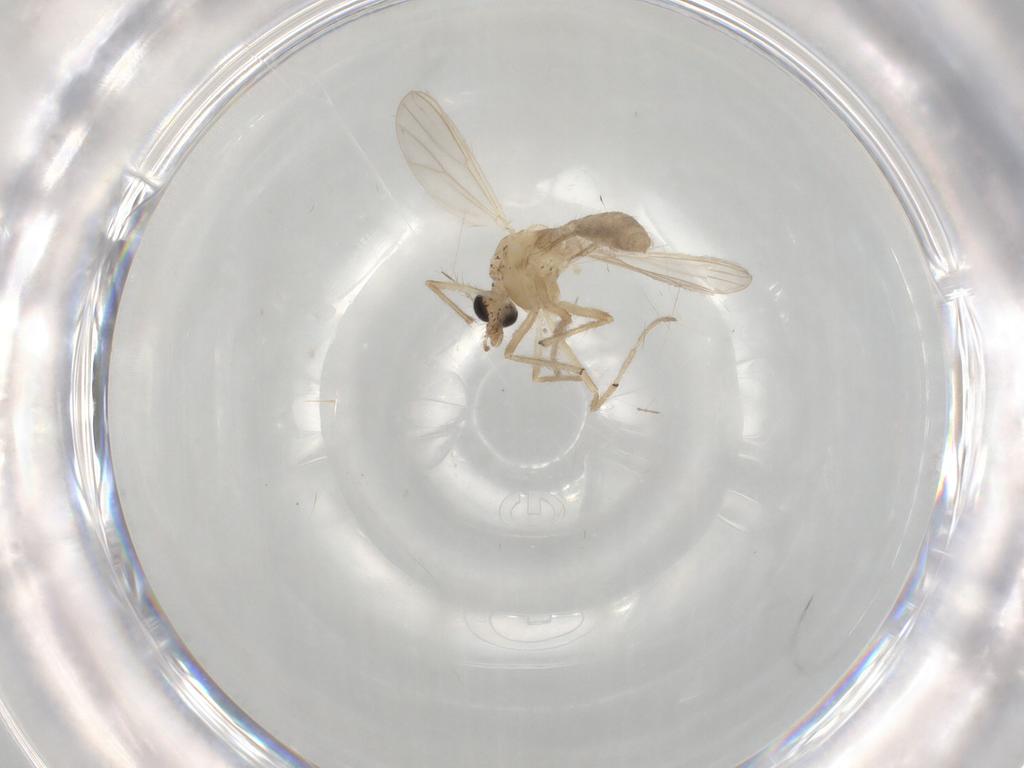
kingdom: Animalia
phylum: Arthropoda
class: Insecta
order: Diptera
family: Chironomidae
